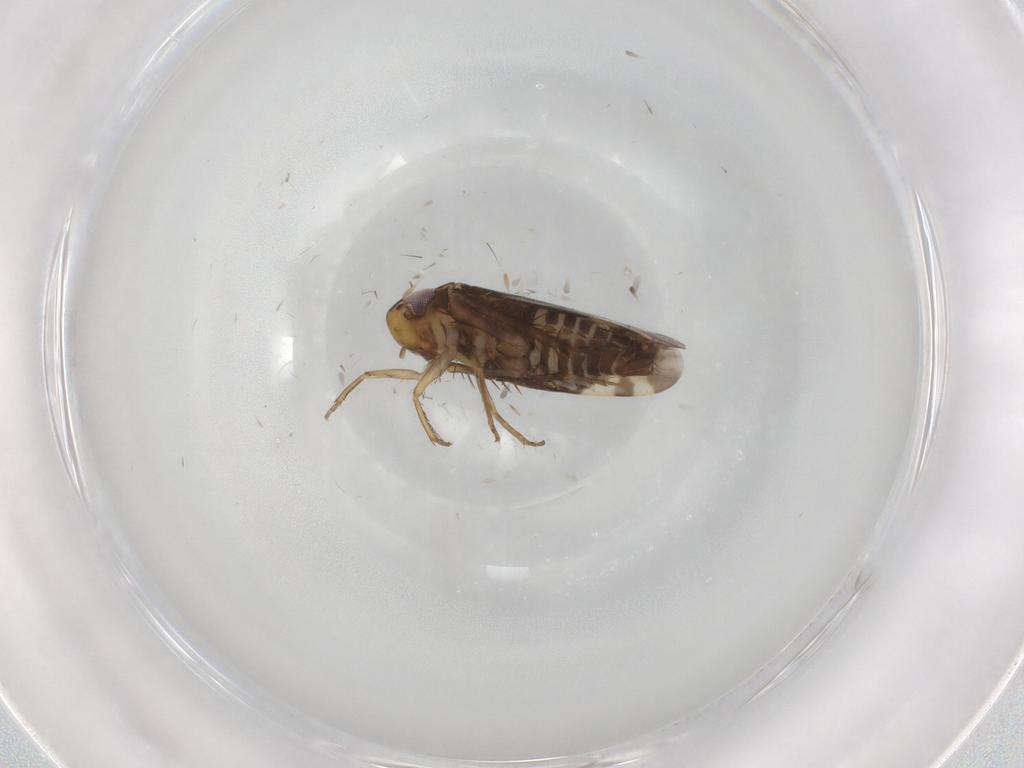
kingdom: Animalia
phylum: Arthropoda
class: Insecta
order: Hemiptera
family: Cicadellidae
